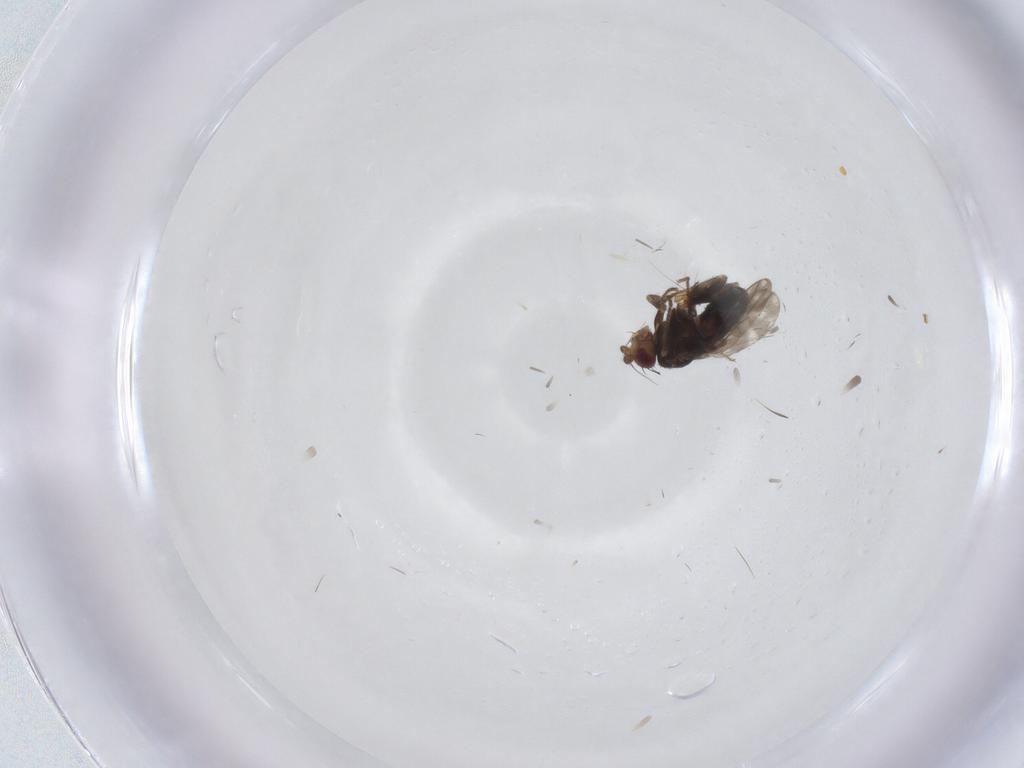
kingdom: Animalia
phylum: Arthropoda
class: Insecta
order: Diptera
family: Sphaeroceridae
